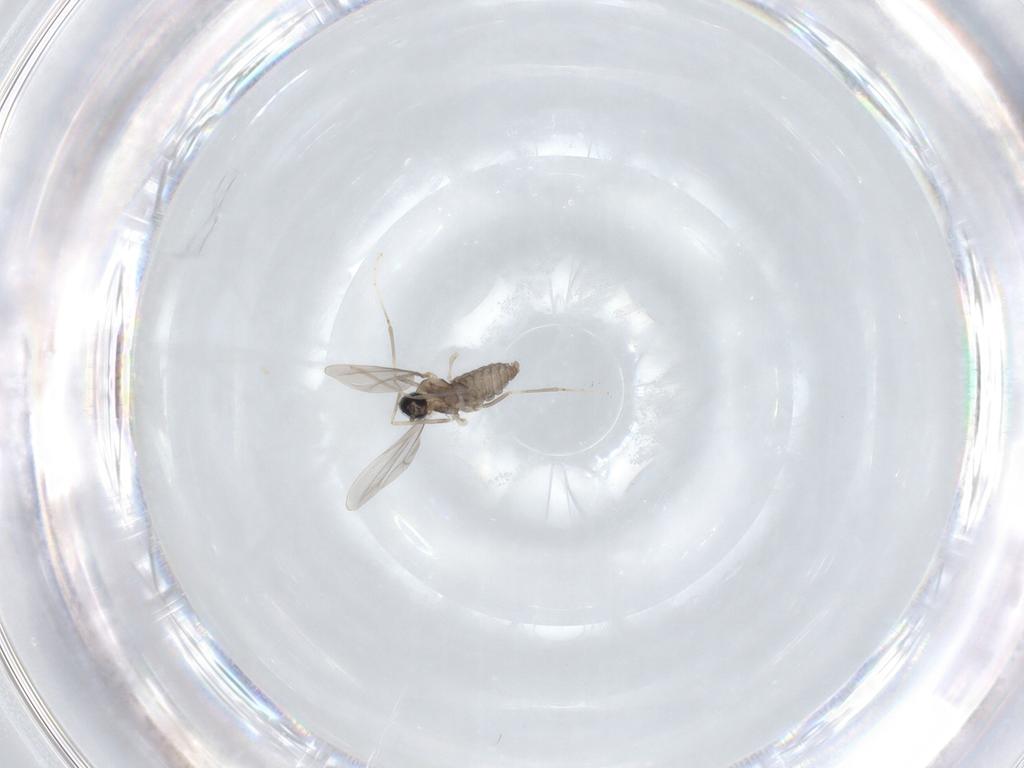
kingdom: Animalia
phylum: Arthropoda
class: Insecta
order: Diptera
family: Cecidomyiidae
